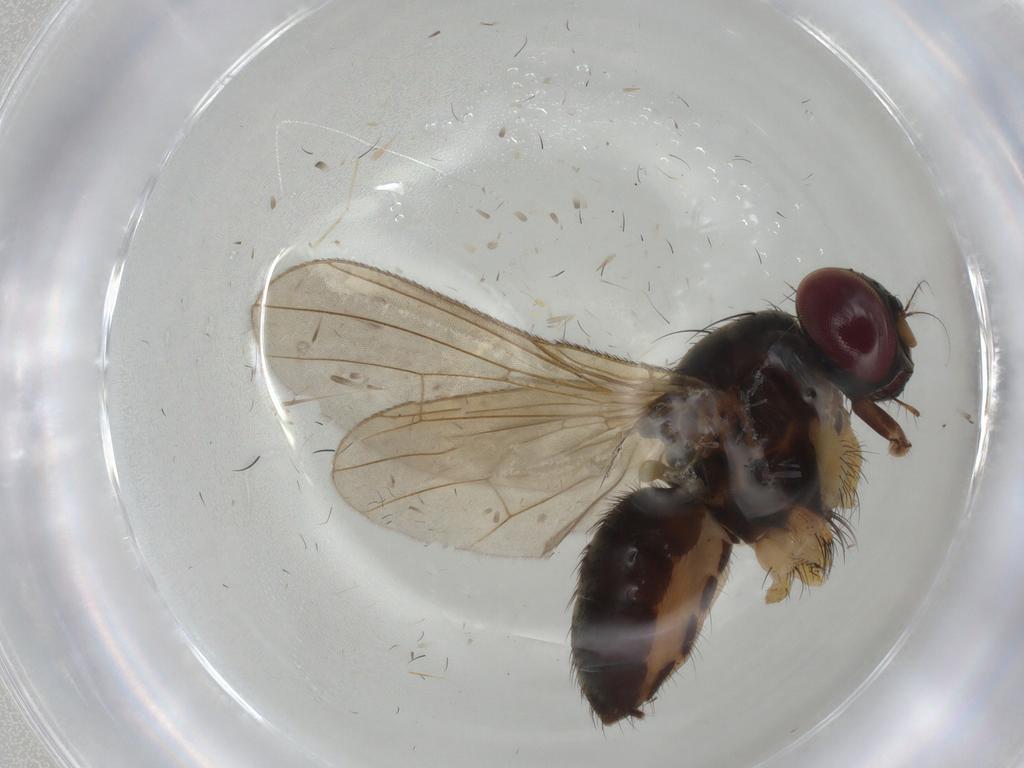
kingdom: Animalia
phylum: Arthropoda
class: Insecta
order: Diptera
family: Muscidae
